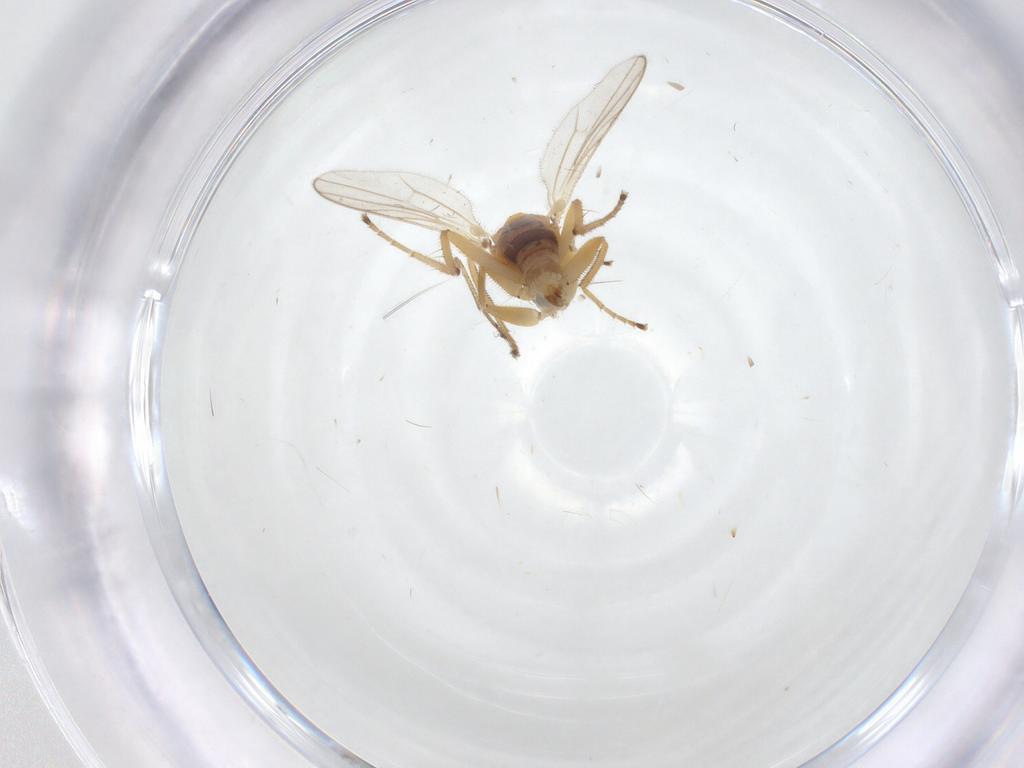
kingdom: Animalia
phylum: Arthropoda
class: Insecta
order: Diptera
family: Hybotidae
